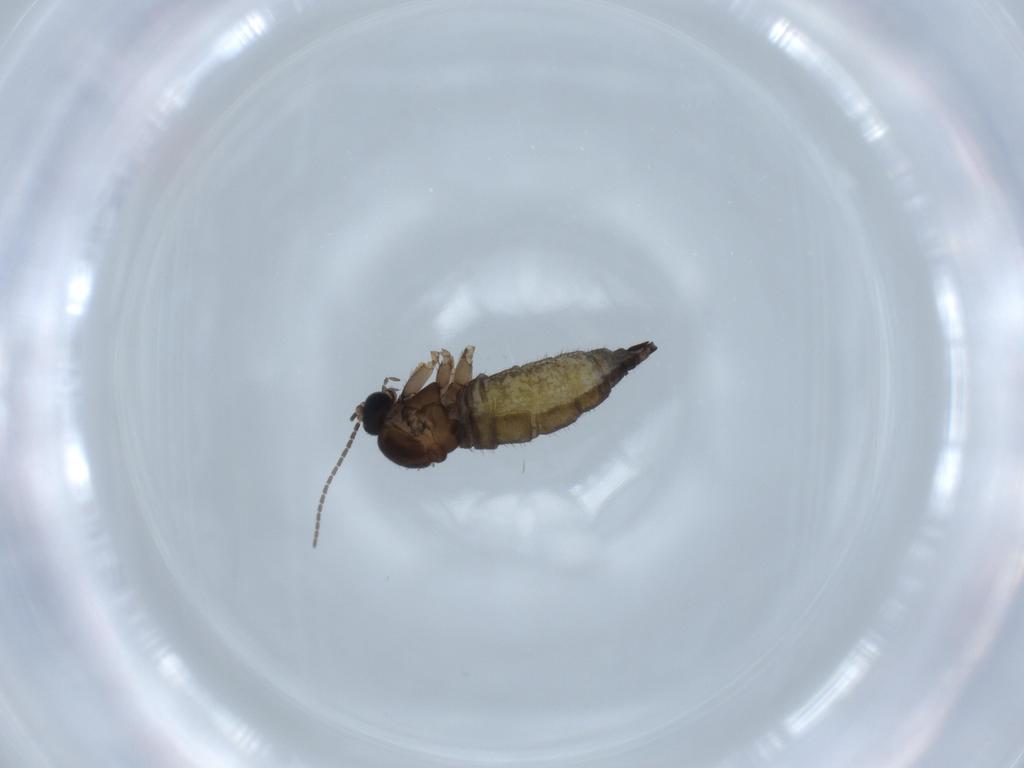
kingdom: Animalia
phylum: Arthropoda
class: Insecta
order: Diptera
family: Sciaridae
